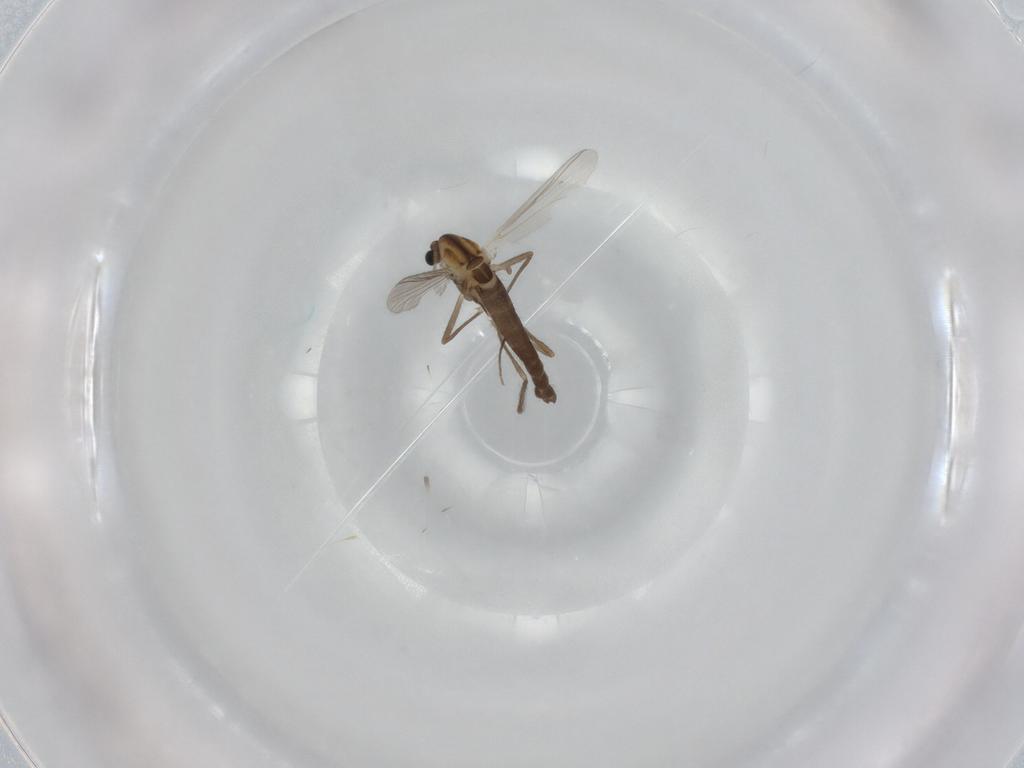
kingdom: Animalia
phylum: Arthropoda
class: Insecta
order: Diptera
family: Chironomidae
